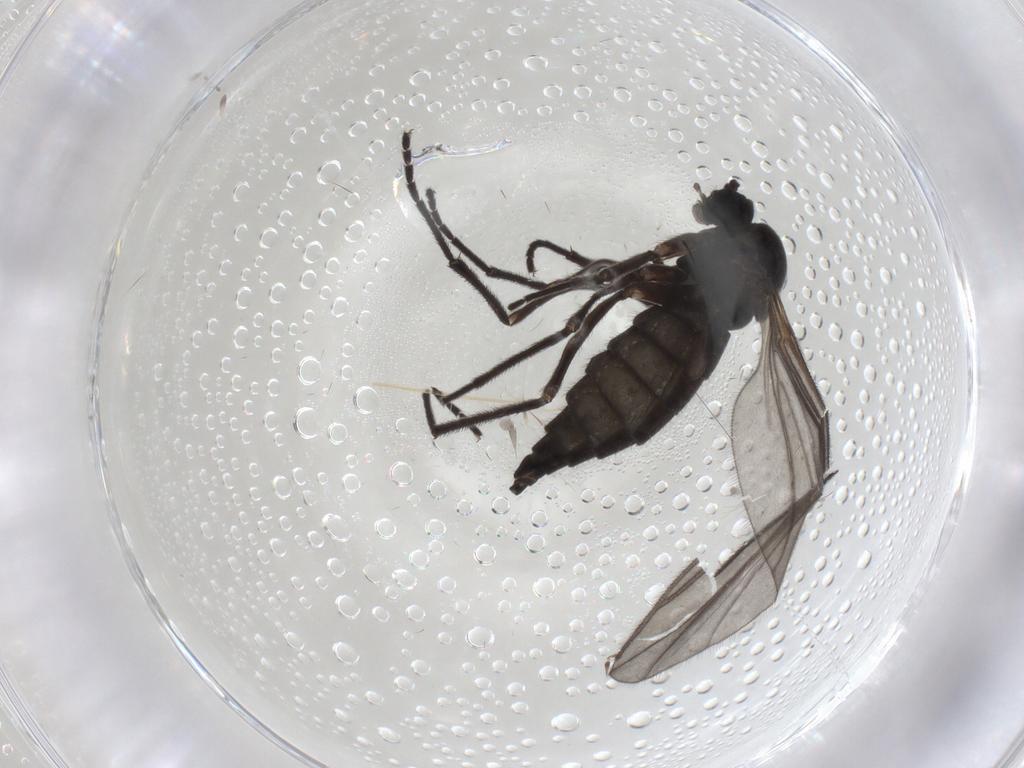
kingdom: Animalia
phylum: Arthropoda
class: Insecta
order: Diptera
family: Sciaridae
